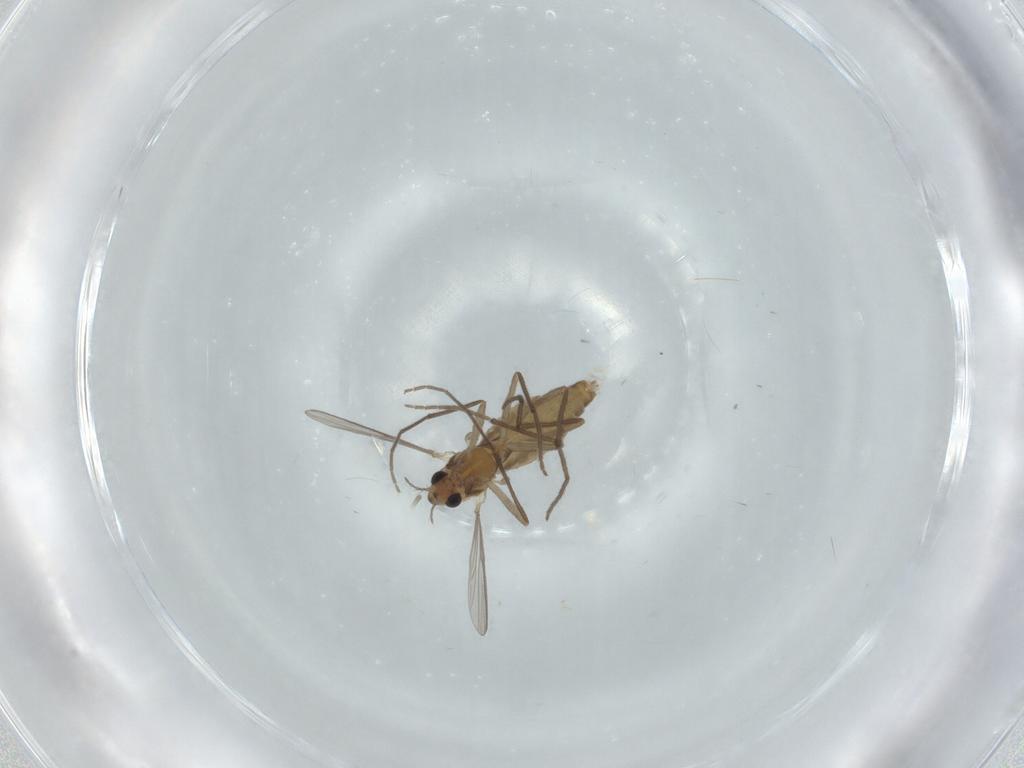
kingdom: Animalia
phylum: Arthropoda
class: Insecta
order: Diptera
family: Chironomidae
